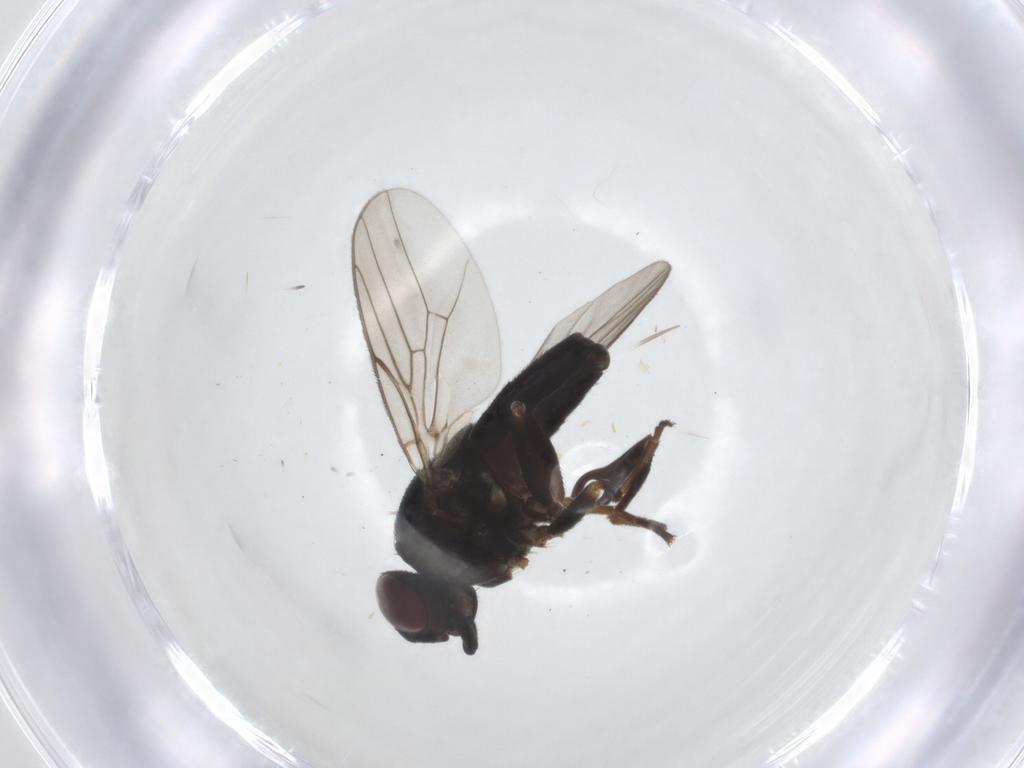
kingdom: Animalia
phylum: Arthropoda
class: Insecta
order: Diptera
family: Chloropidae
